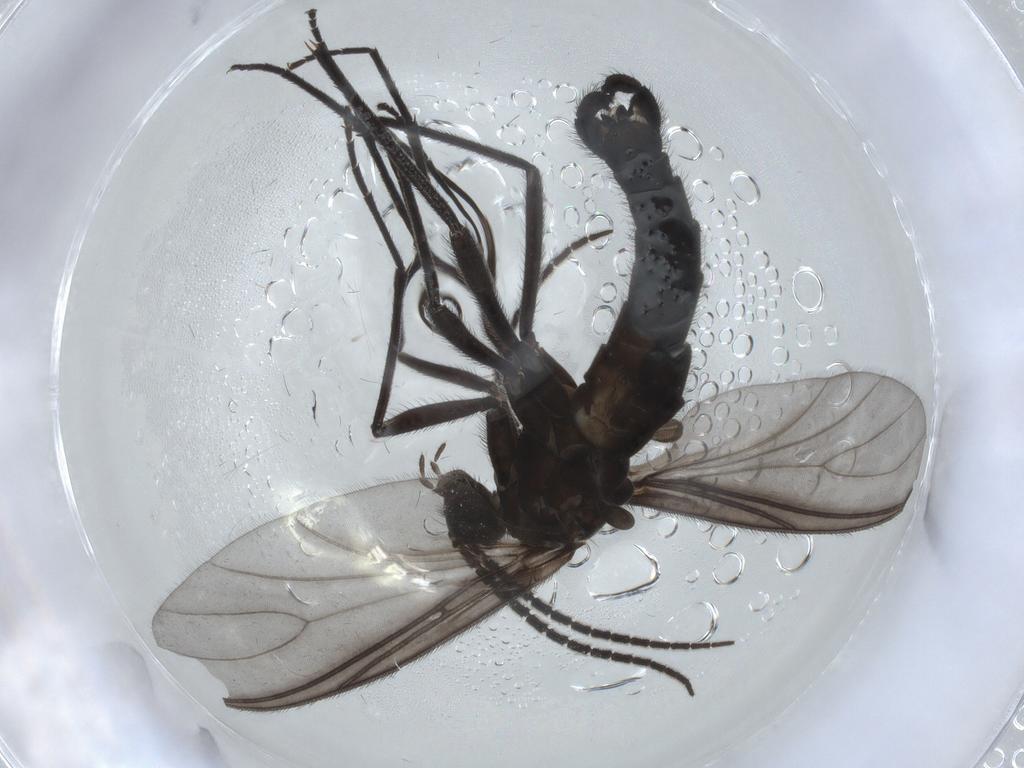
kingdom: Animalia
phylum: Arthropoda
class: Insecta
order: Diptera
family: Sciaridae
